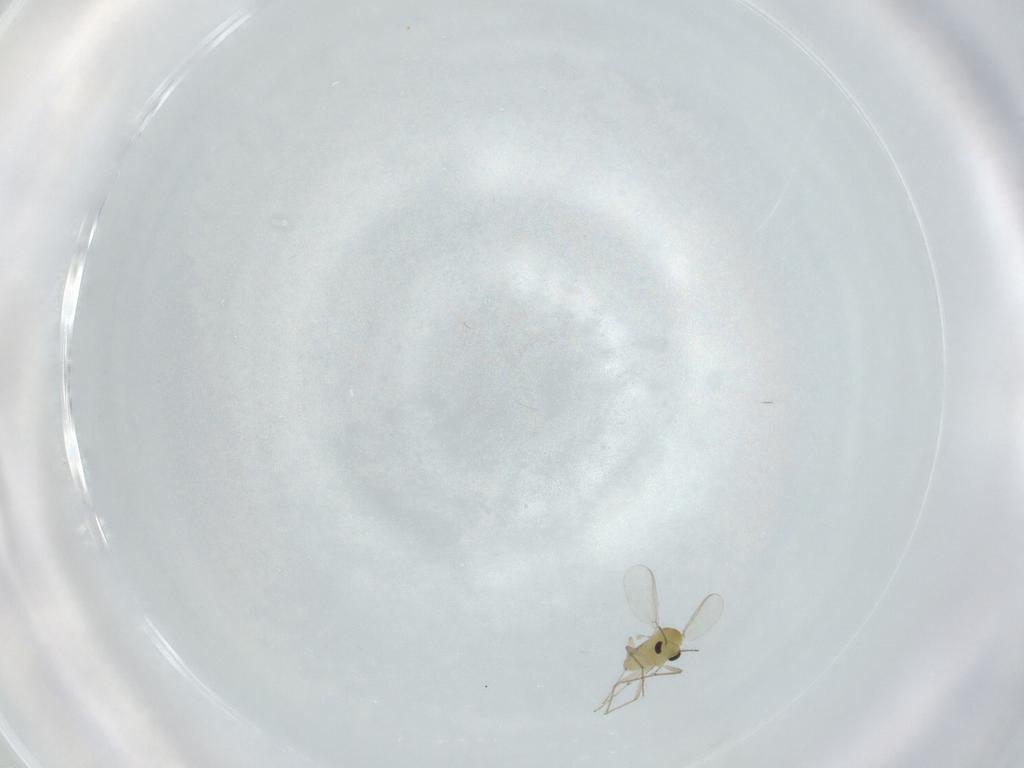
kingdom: Animalia
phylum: Arthropoda
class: Insecta
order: Diptera
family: Chironomidae
